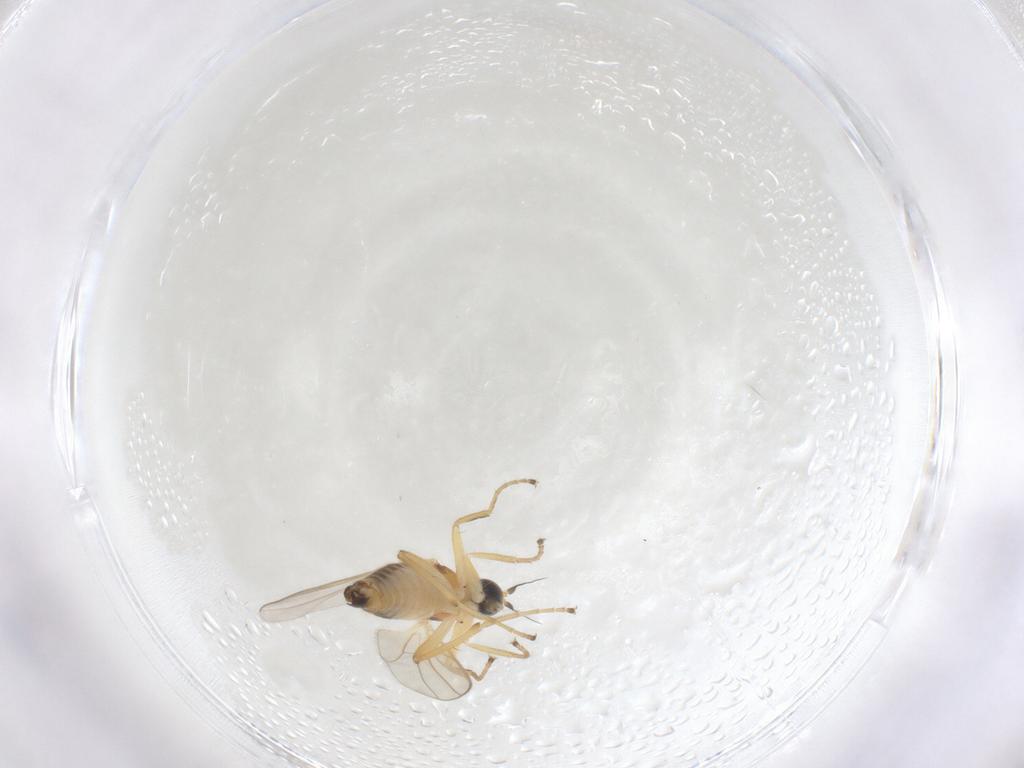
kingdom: Animalia
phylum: Arthropoda
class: Insecta
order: Diptera
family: Hybotidae
